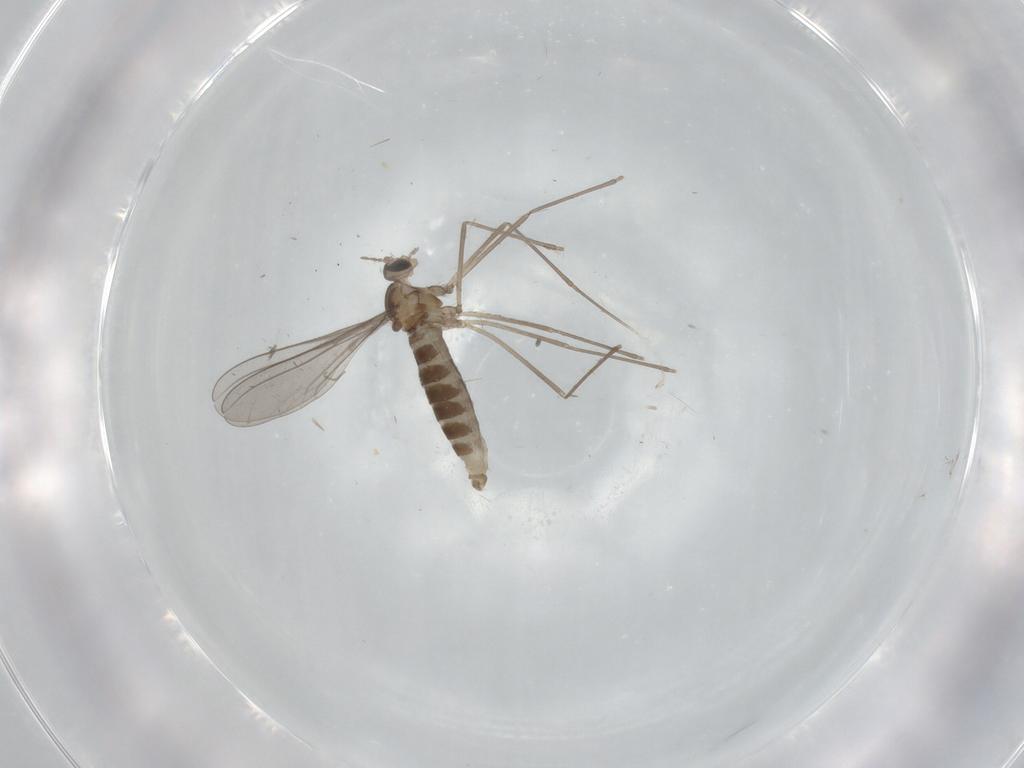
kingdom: Animalia
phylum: Arthropoda
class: Insecta
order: Diptera
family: Cecidomyiidae
